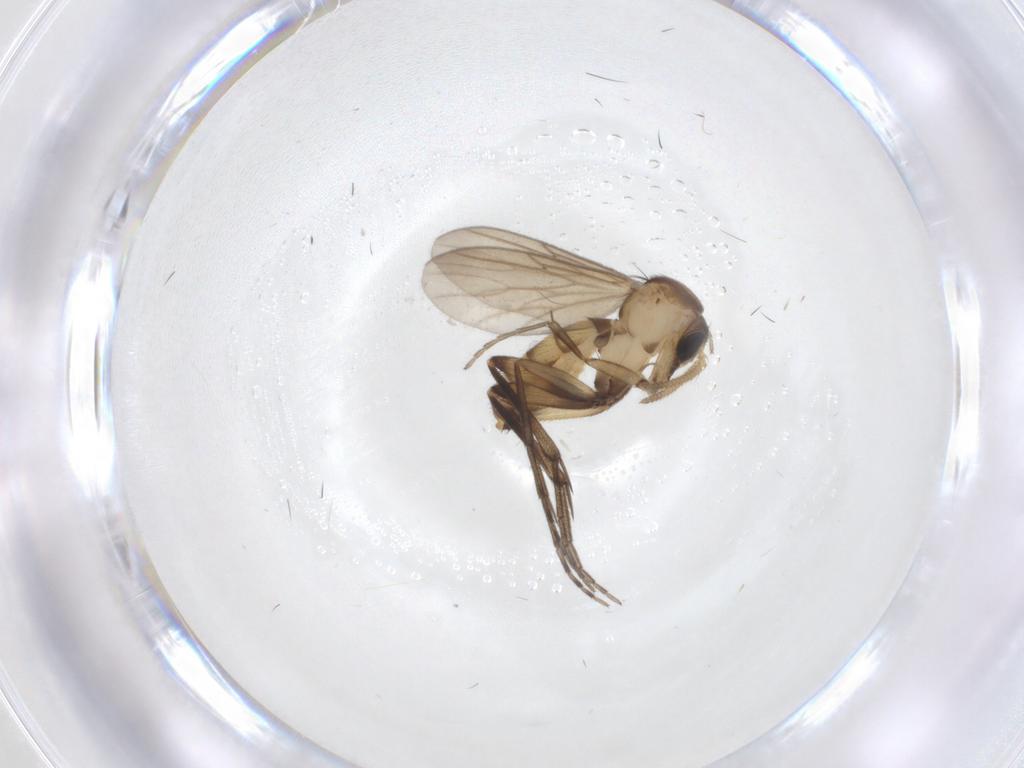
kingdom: Animalia
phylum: Arthropoda
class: Insecta
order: Diptera
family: Mycetophilidae
